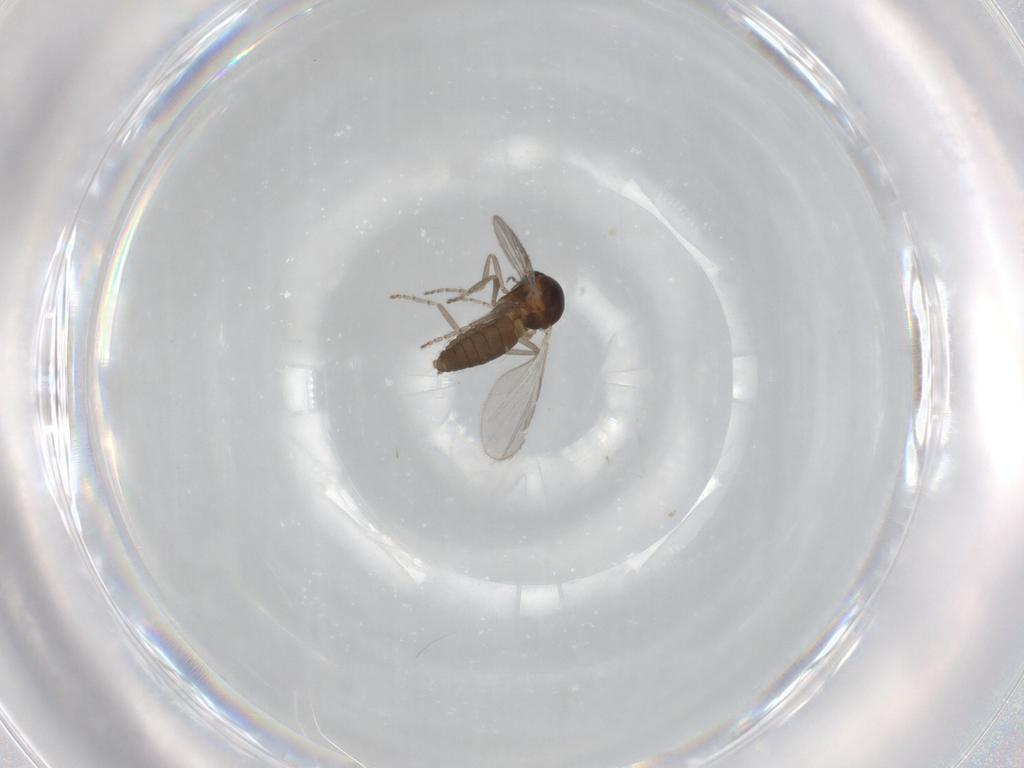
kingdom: Animalia
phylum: Arthropoda
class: Insecta
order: Diptera
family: Ceratopogonidae
